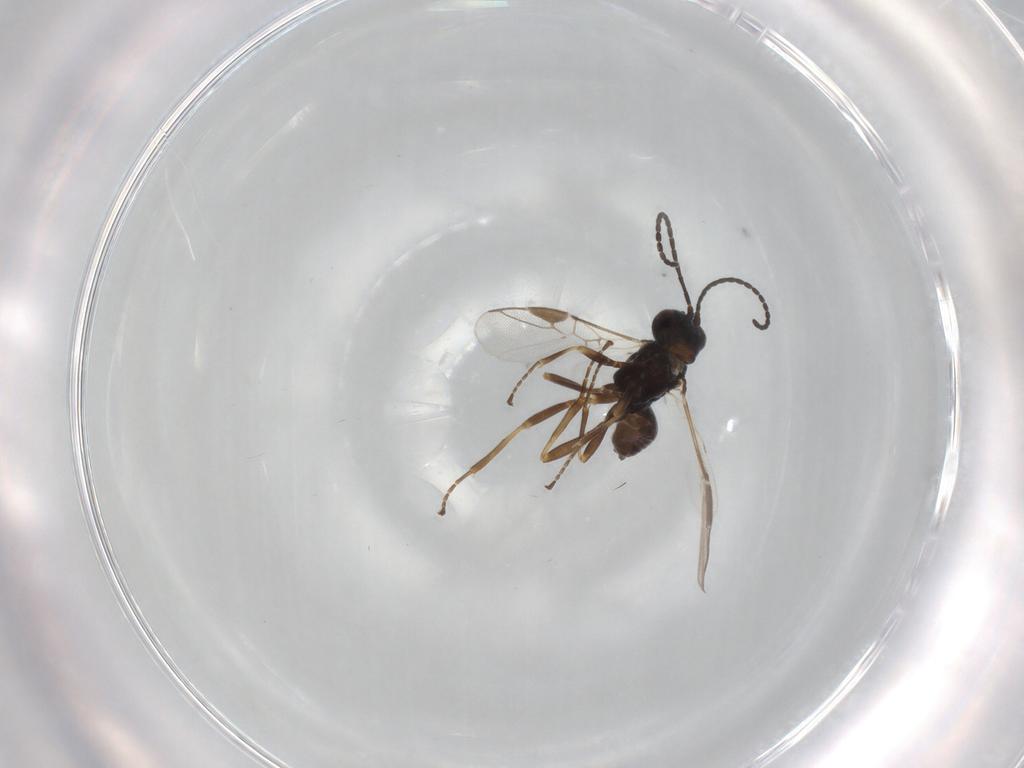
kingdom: Animalia
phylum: Arthropoda
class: Insecta
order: Hymenoptera
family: Braconidae
